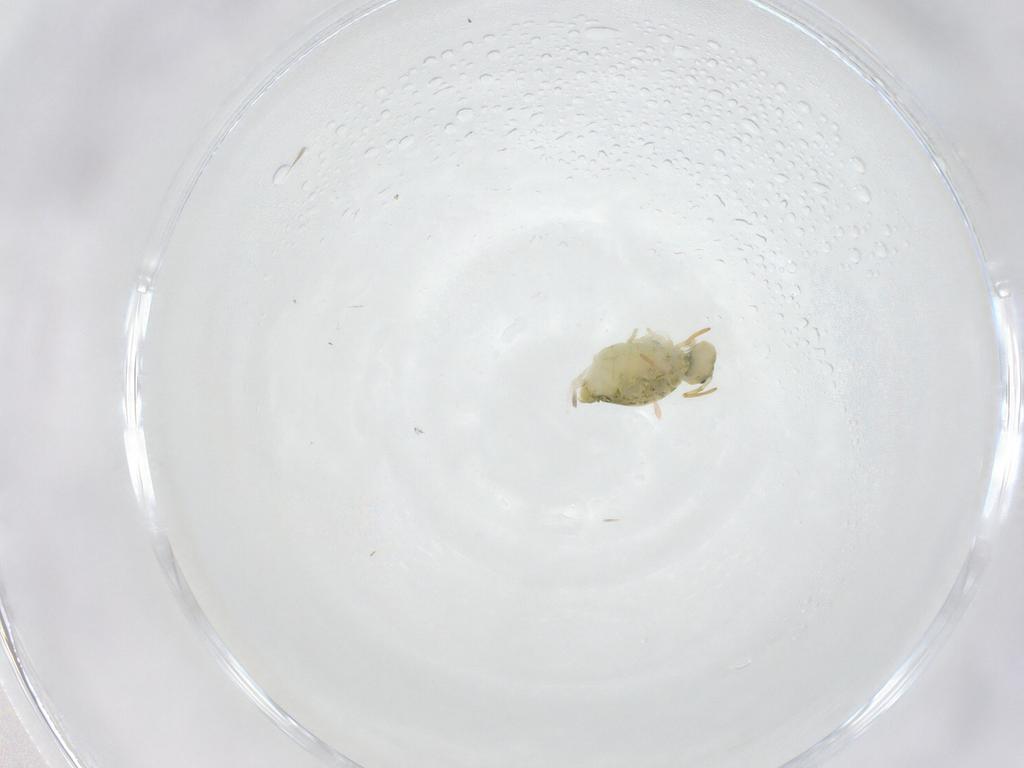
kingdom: Animalia
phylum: Arthropoda
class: Collembola
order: Symphypleona
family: Katiannidae
